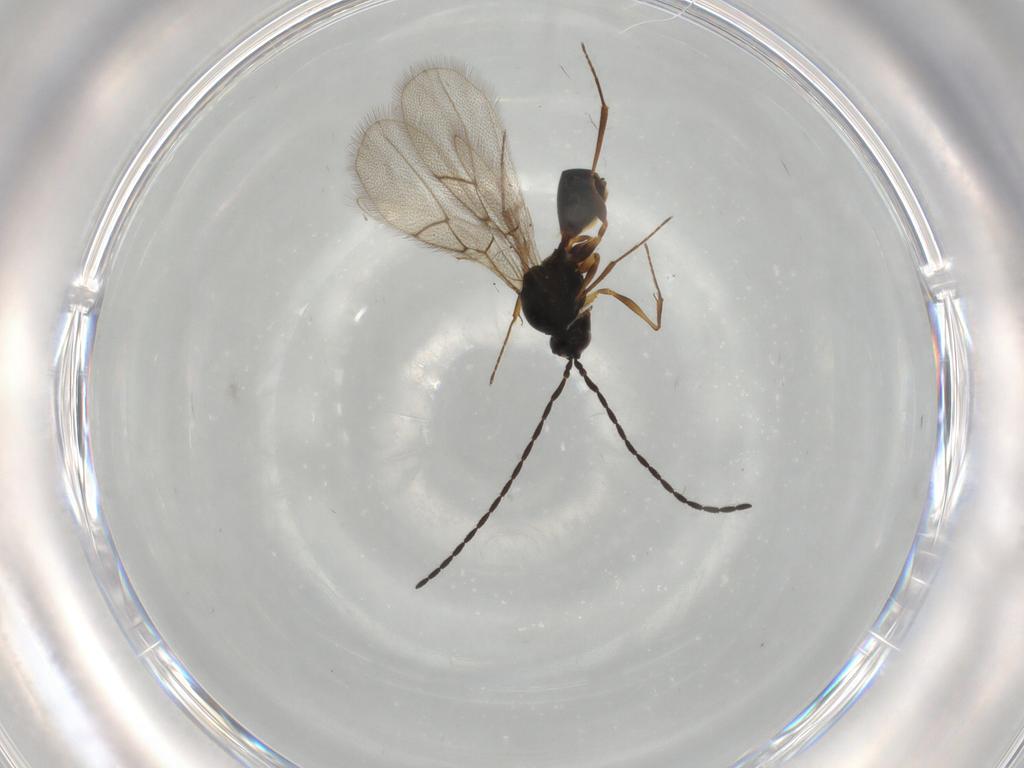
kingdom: Animalia
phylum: Arthropoda
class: Insecta
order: Hymenoptera
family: Figitidae
